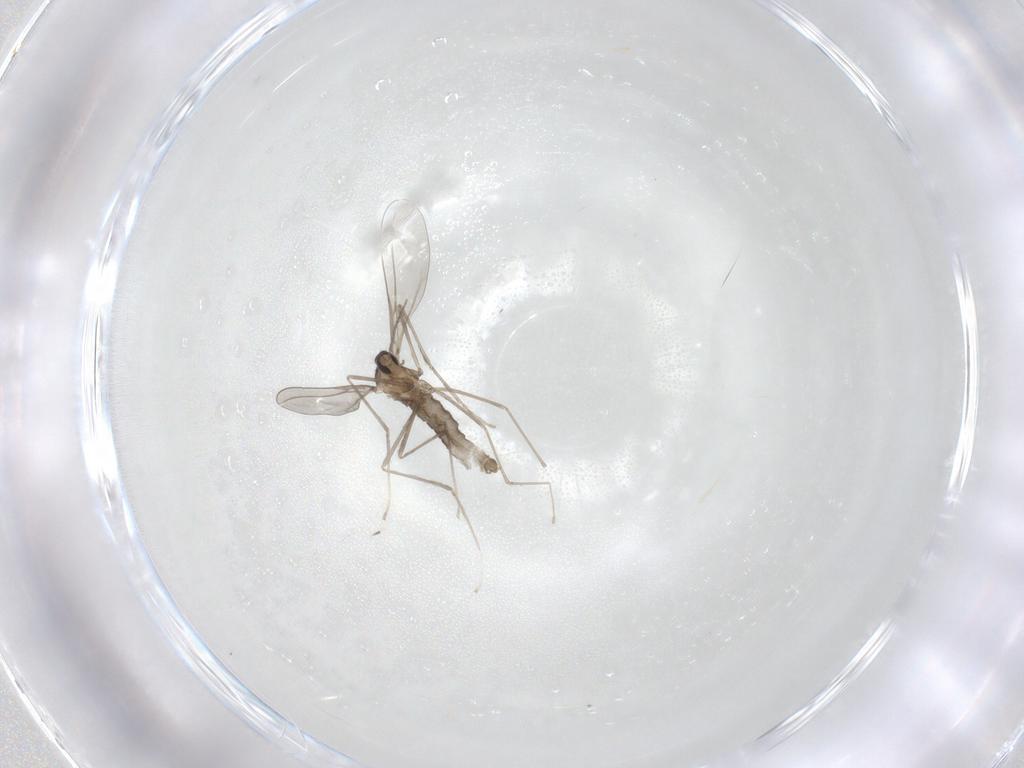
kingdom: Animalia
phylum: Arthropoda
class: Insecta
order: Diptera
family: Cecidomyiidae
